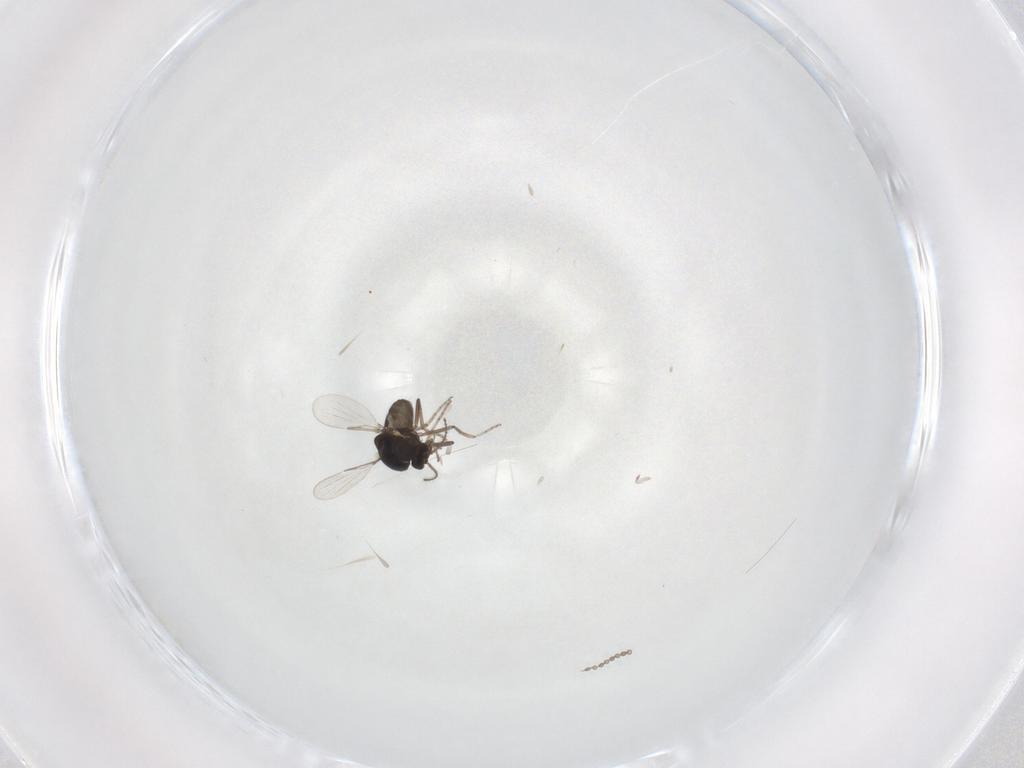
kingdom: Animalia
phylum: Arthropoda
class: Insecta
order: Diptera
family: Ceratopogonidae
